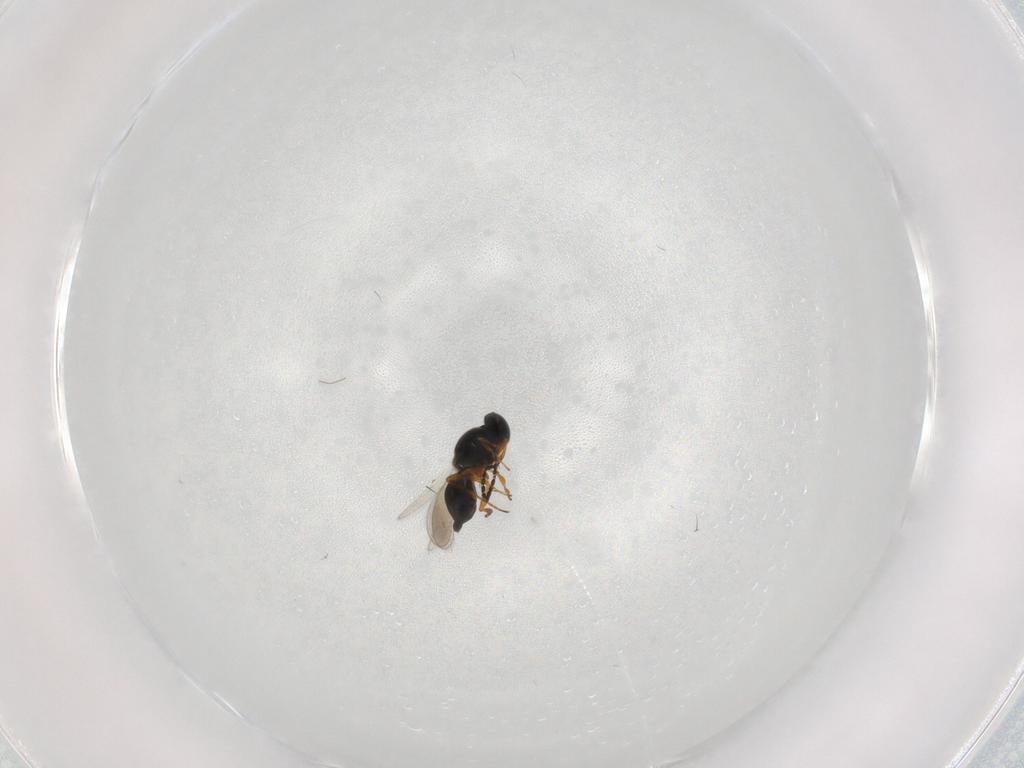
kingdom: Animalia
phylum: Arthropoda
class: Insecta
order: Hymenoptera
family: Platygastridae
